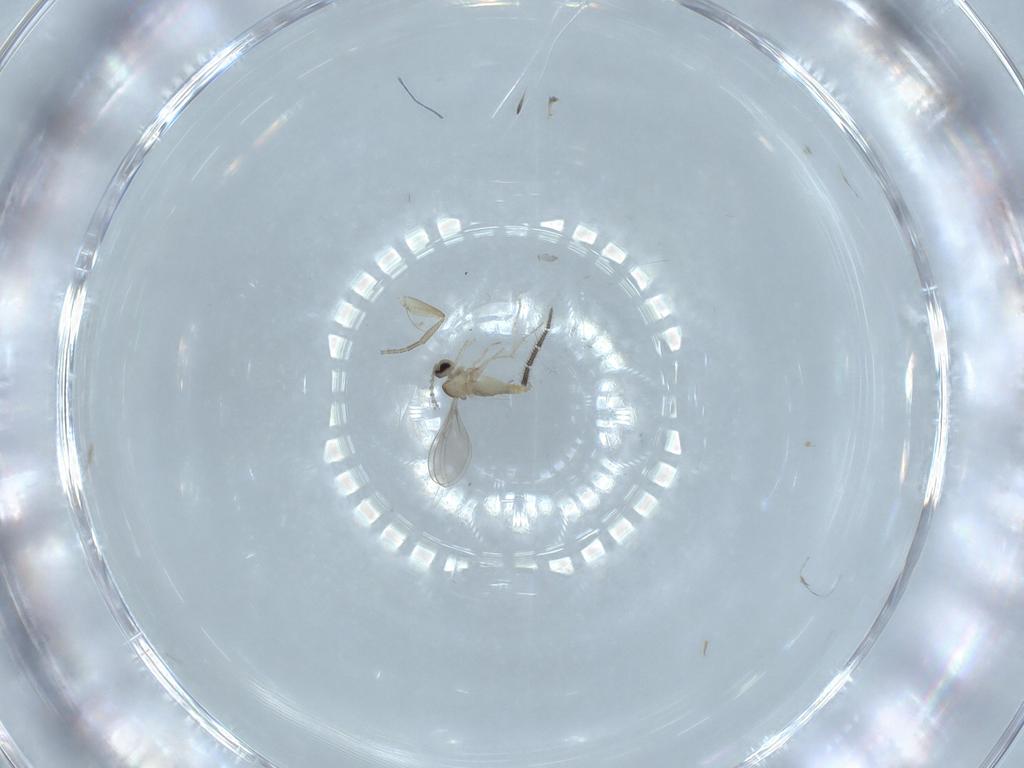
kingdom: Animalia
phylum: Arthropoda
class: Insecta
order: Diptera
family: Cecidomyiidae
